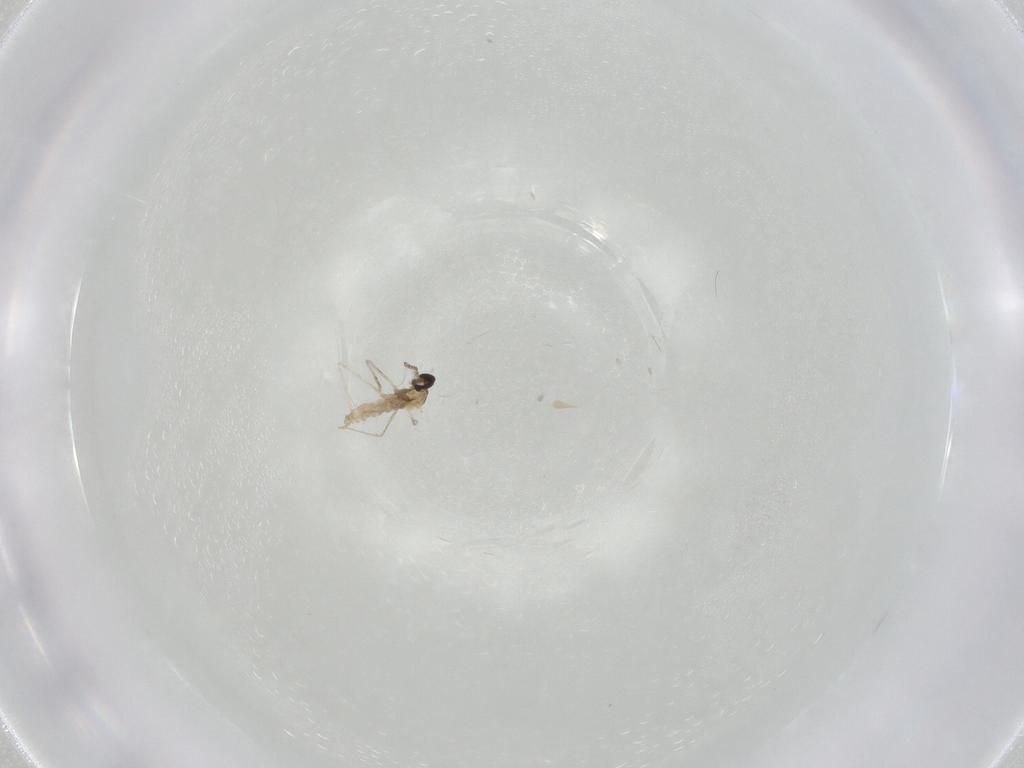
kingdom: Animalia
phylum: Arthropoda
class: Insecta
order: Diptera
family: Cecidomyiidae
